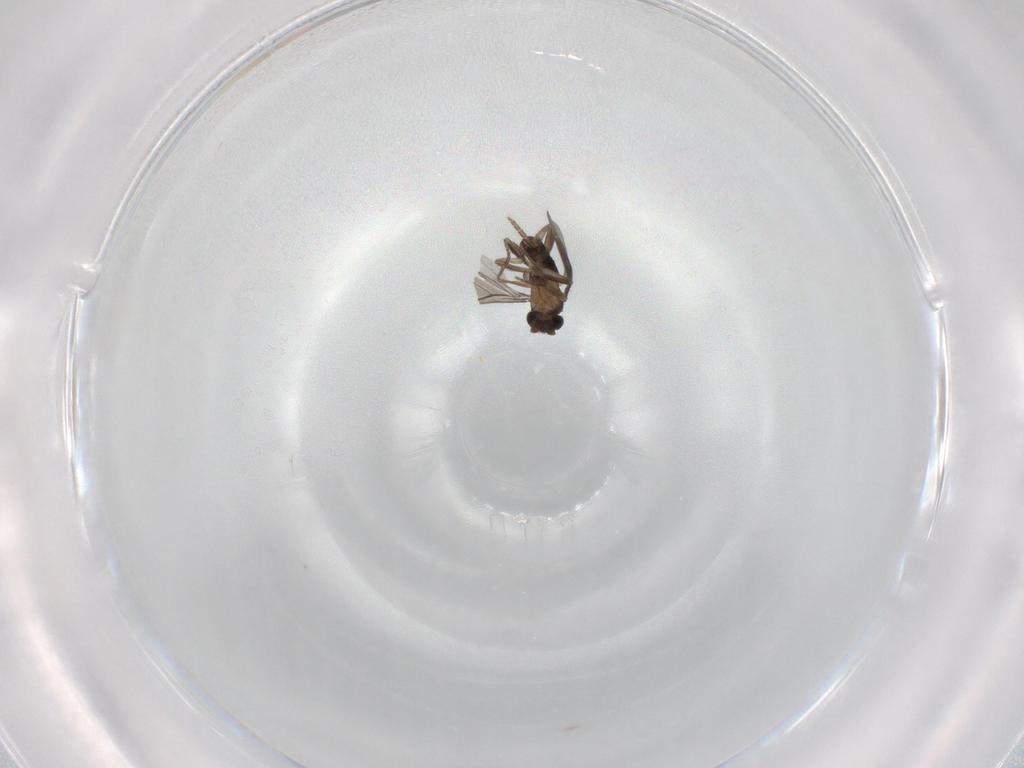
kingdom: Animalia
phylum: Arthropoda
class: Insecta
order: Diptera
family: Phoridae
